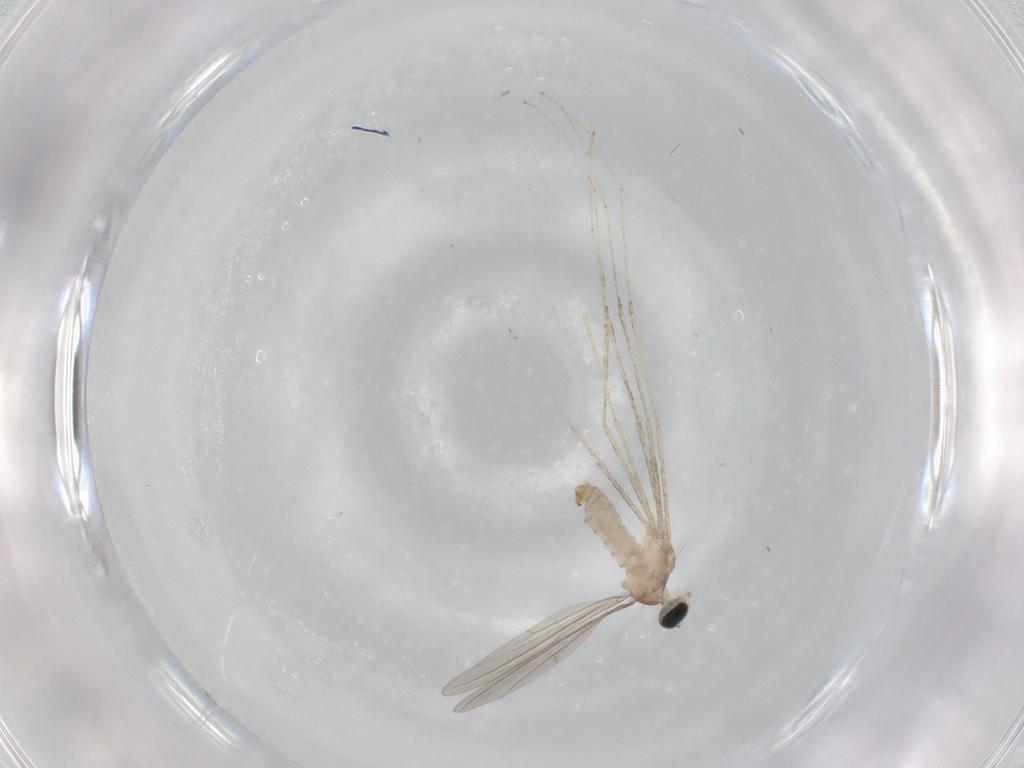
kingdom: Animalia
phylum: Arthropoda
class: Insecta
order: Diptera
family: Cecidomyiidae
